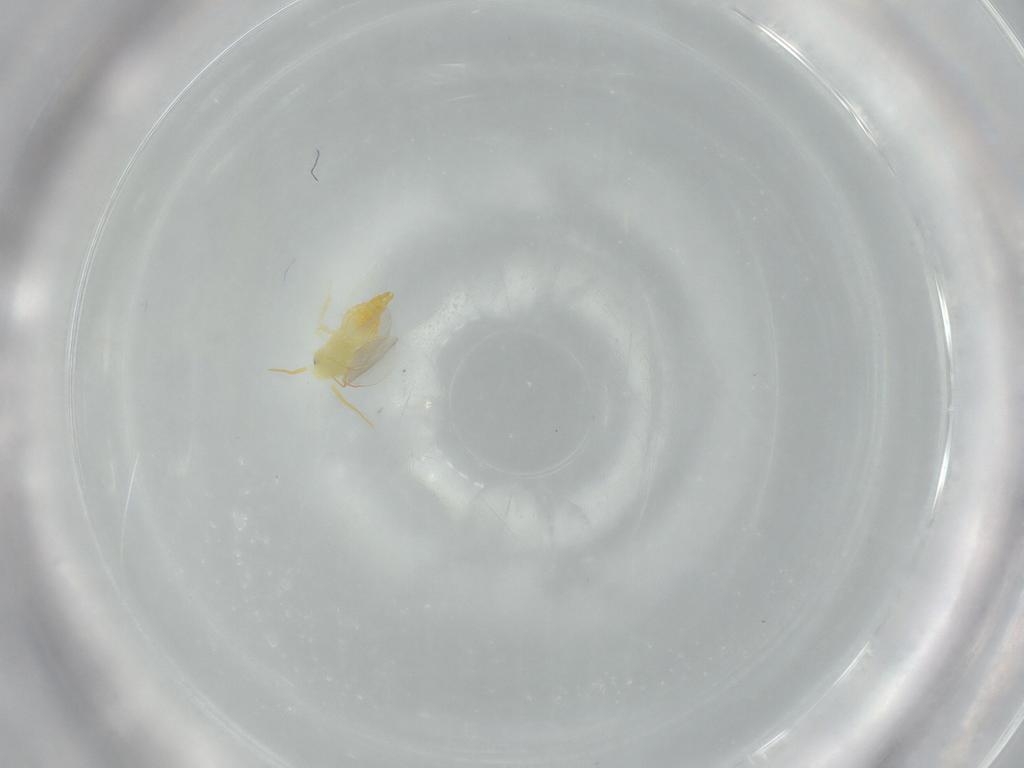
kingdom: Animalia
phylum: Arthropoda
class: Insecta
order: Hemiptera
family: Aleyrodidae
